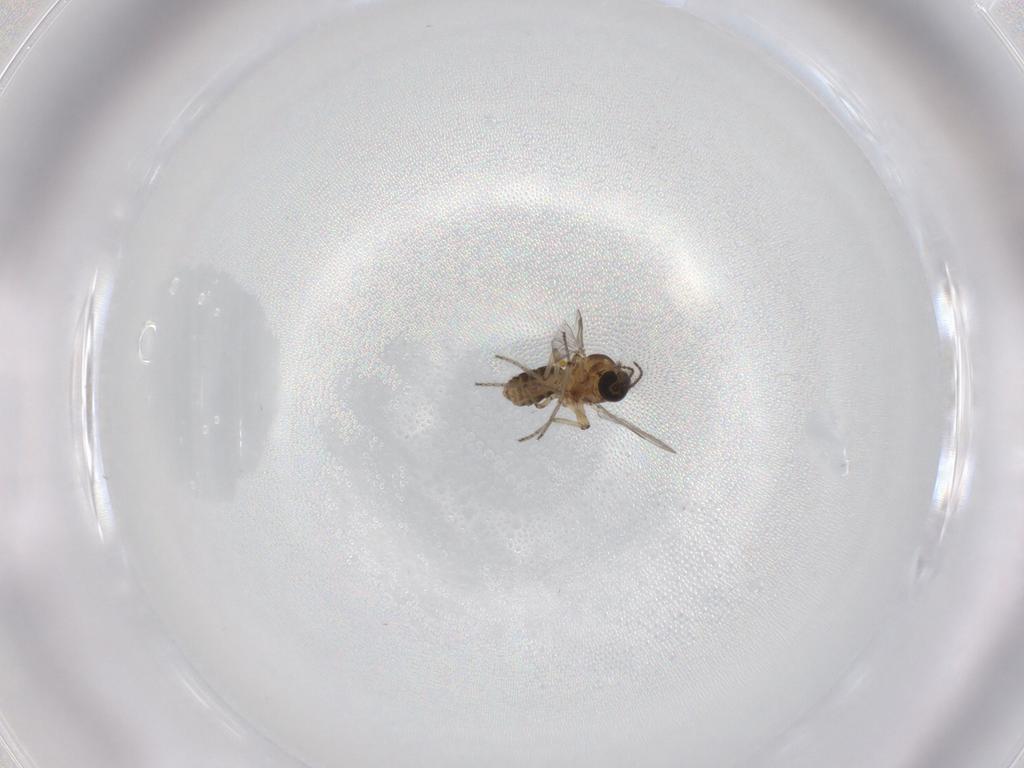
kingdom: Animalia
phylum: Arthropoda
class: Insecta
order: Diptera
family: Ceratopogonidae
